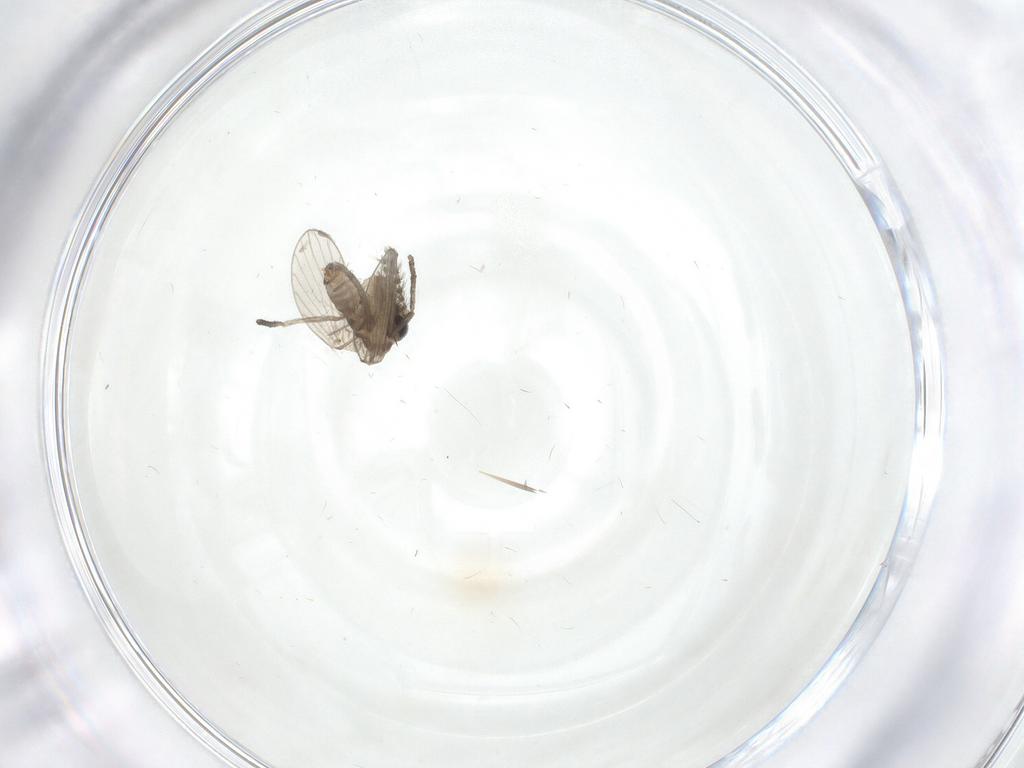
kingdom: Animalia
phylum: Arthropoda
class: Insecta
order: Diptera
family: Chironomidae
